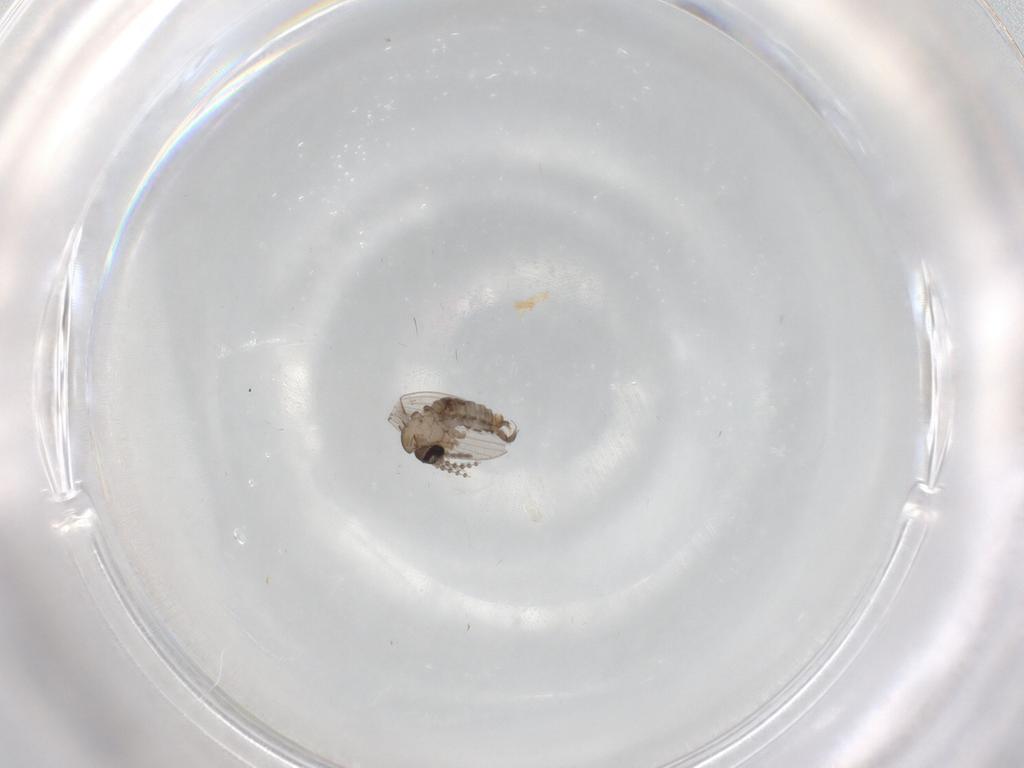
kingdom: Animalia
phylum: Arthropoda
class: Insecta
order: Diptera
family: Psychodidae
